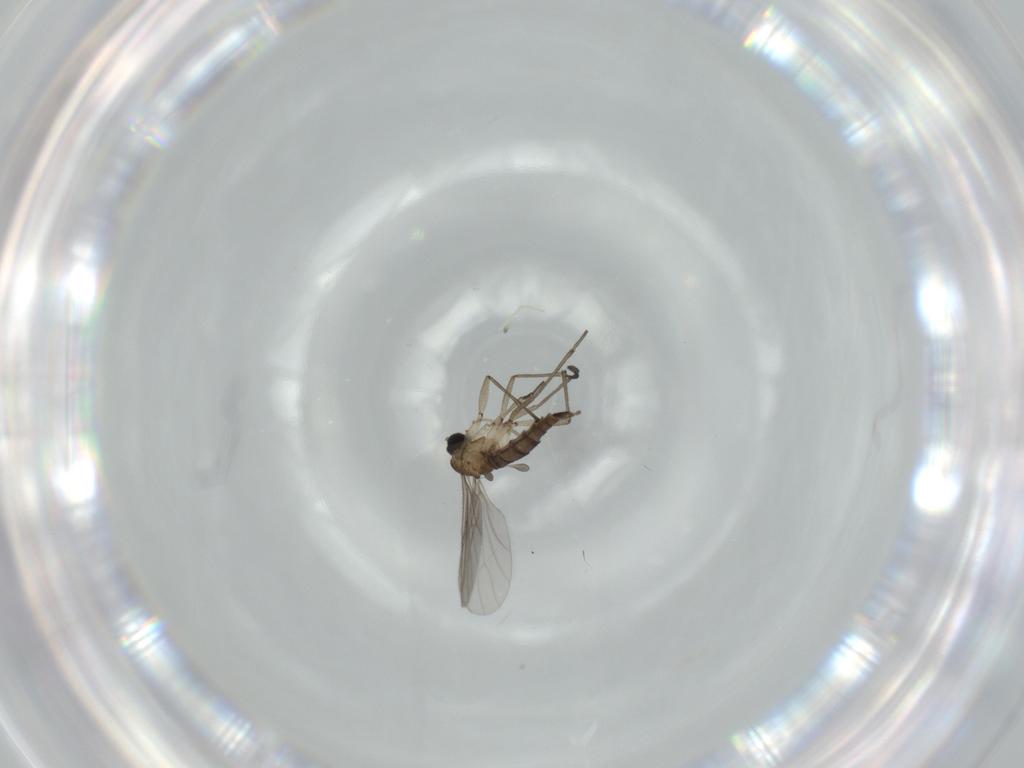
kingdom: Animalia
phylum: Arthropoda
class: Insecta
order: Diptera
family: Sciaridae
